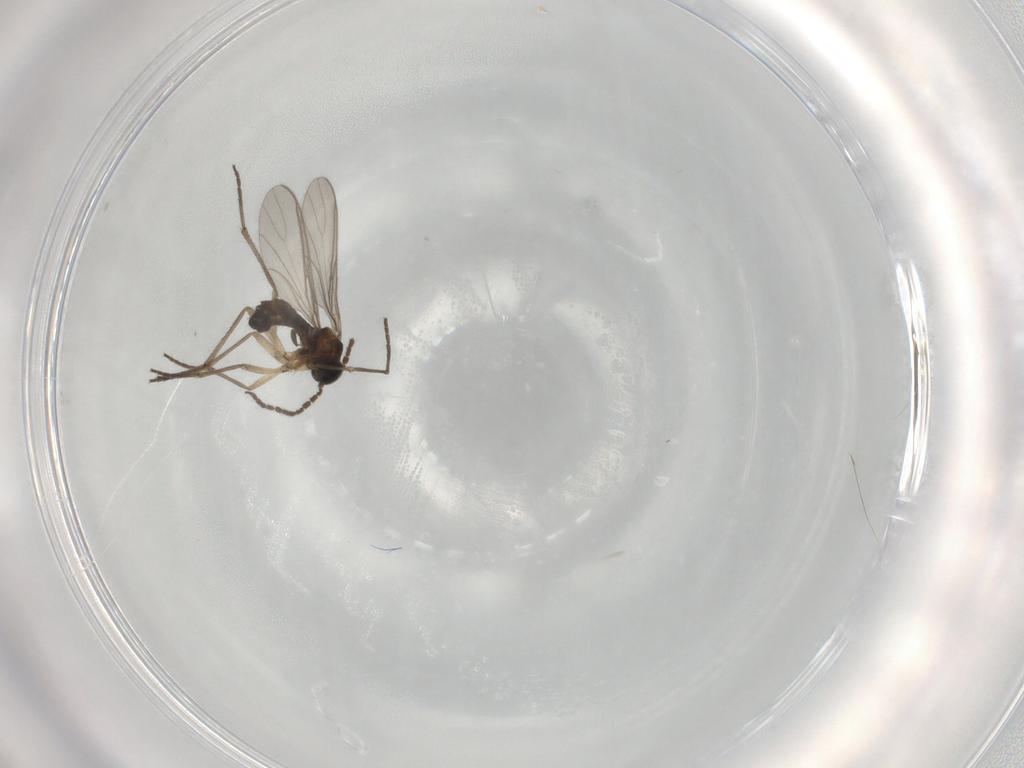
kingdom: Animalia
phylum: Arthropoda
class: Insecta
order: Diptera
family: Sciaridae
